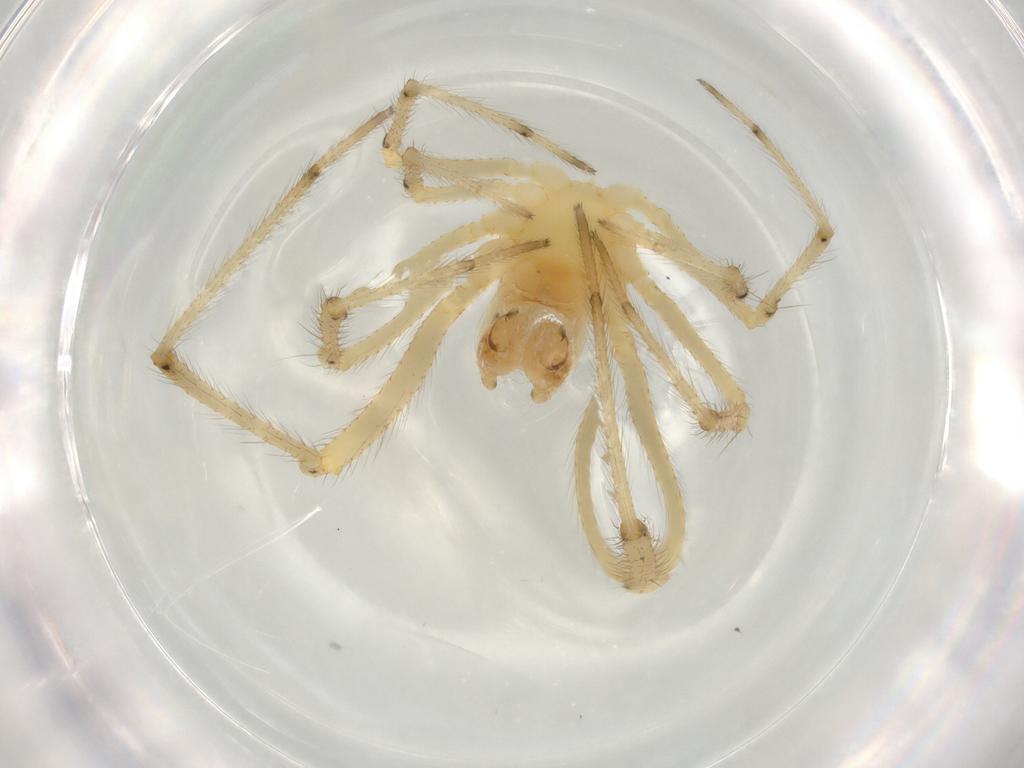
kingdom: Animalia
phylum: Arthropoda
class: Arachnida
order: Araneae
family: Theridiidae
